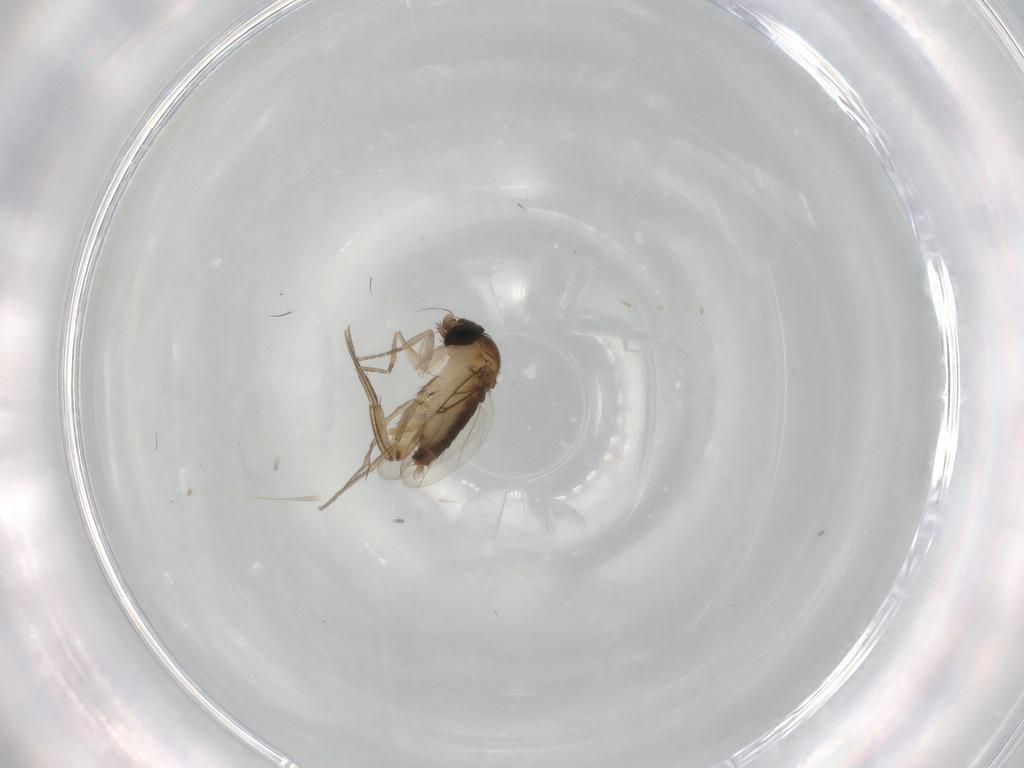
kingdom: Animalia
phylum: Arthropoda
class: Insecta
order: Diptera
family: Phoridae
